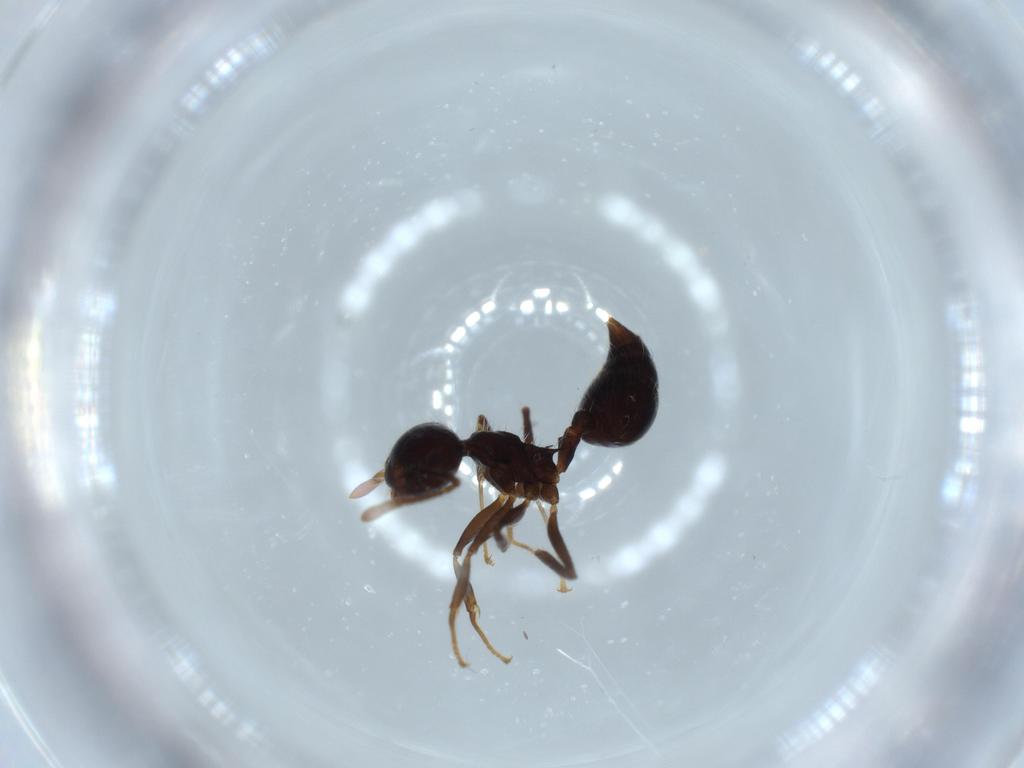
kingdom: Animalia
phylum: Arthropoda
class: Insecta
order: Hymenoptera
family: Formicidae
